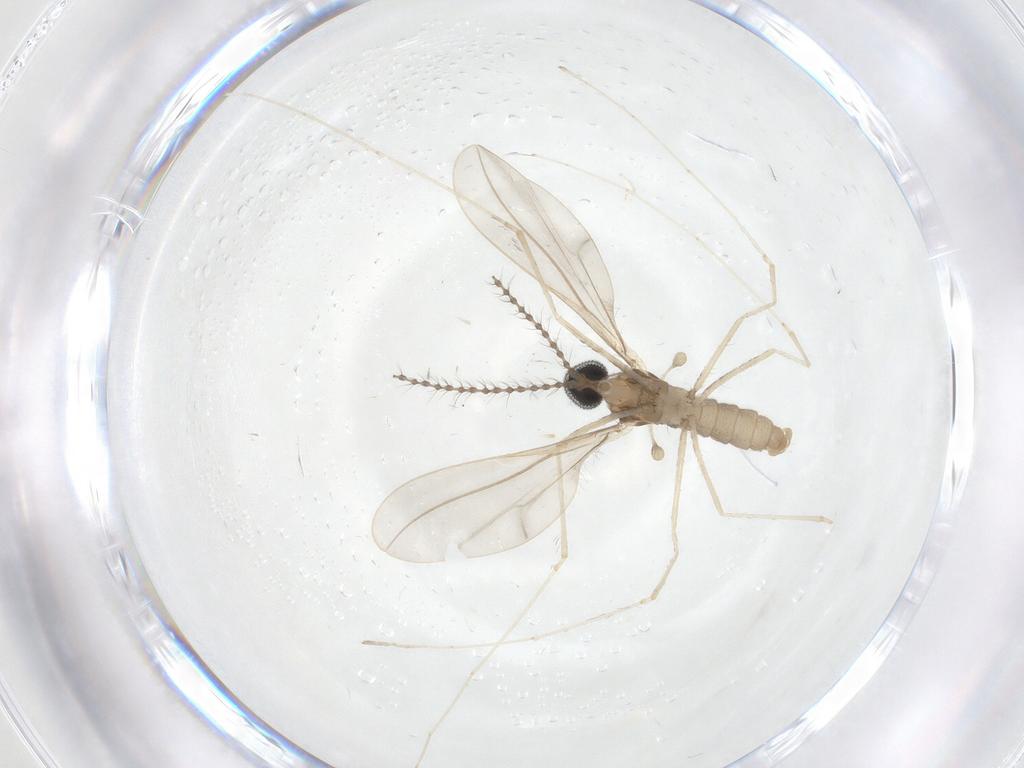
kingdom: Animalia
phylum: Arthropoda
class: Insecta
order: Diptera
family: Cecidomyiidae
